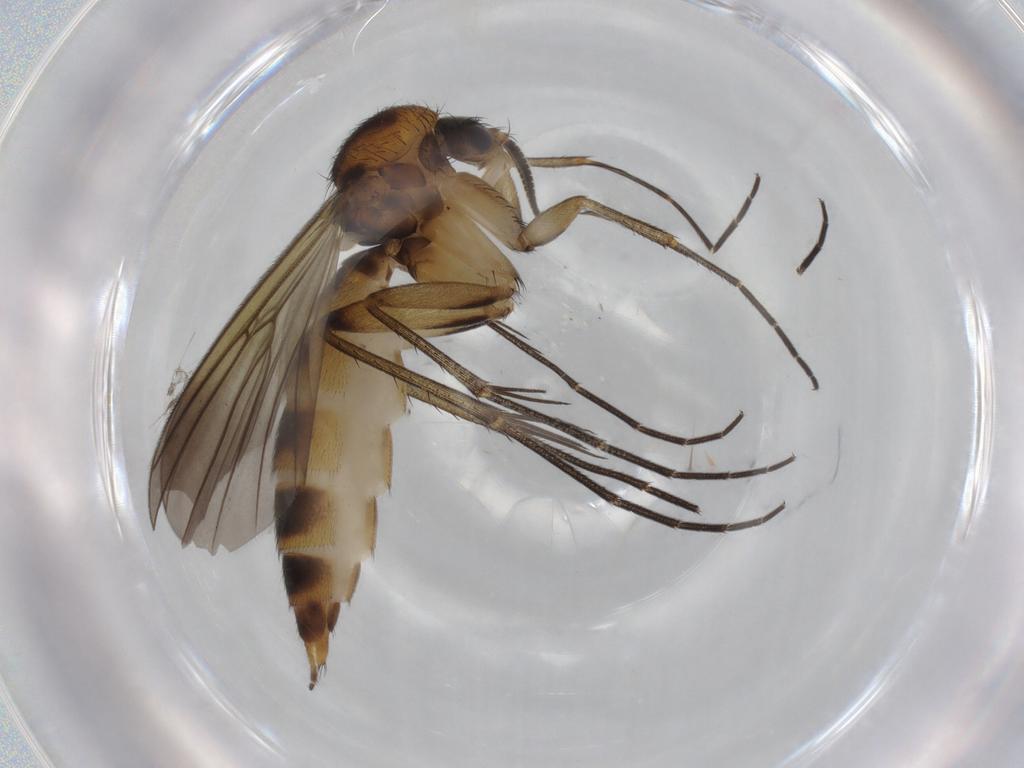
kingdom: Animalia
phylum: Arthropoda
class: Insecta
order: Diptera
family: Mycetophilidae
